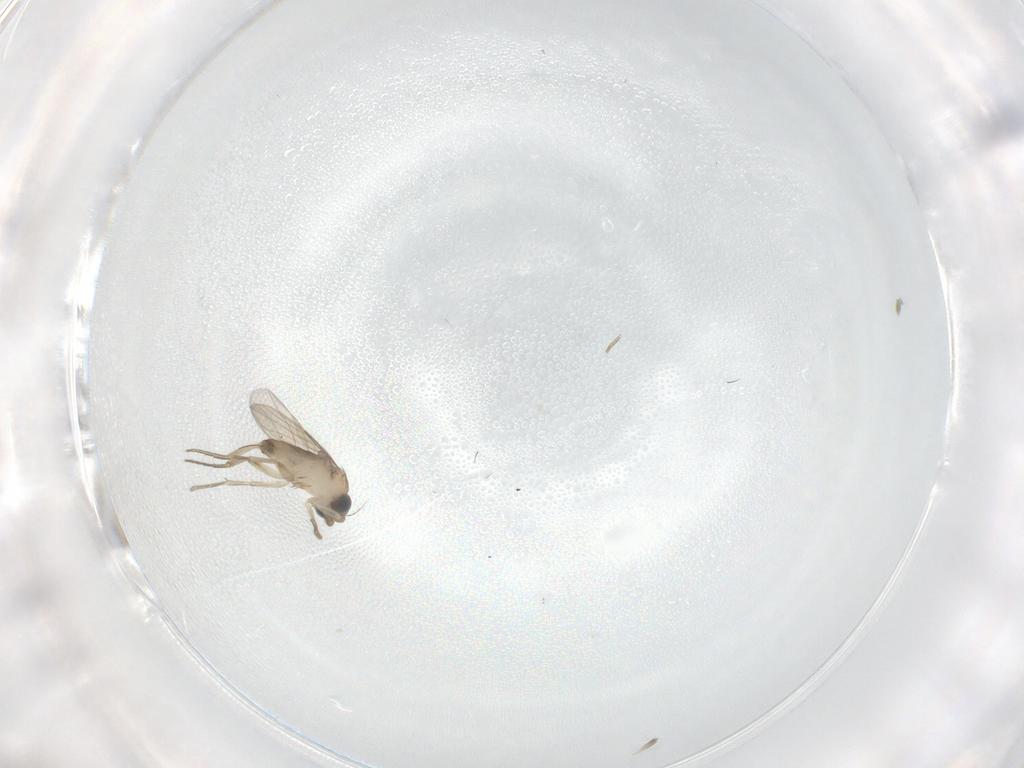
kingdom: Animalia
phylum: Arthropoda
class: Insecta
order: Diptera
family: Phoridae
